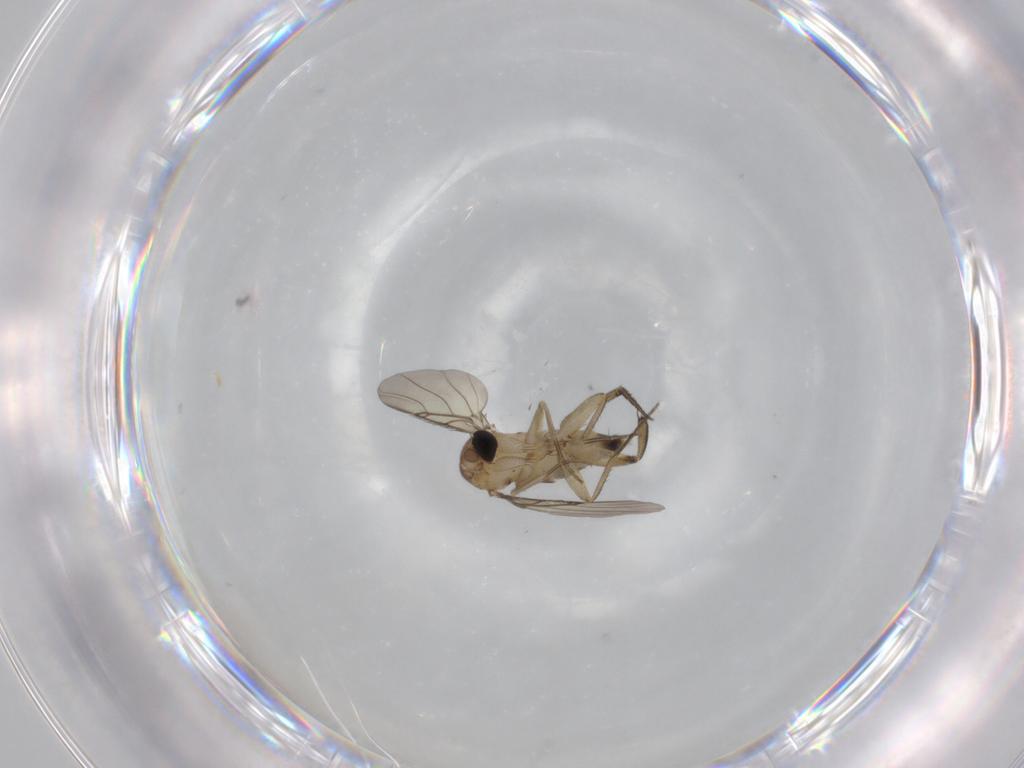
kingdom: Animalia
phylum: Arthropoda
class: Insecta
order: Diptera
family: Phoridae
